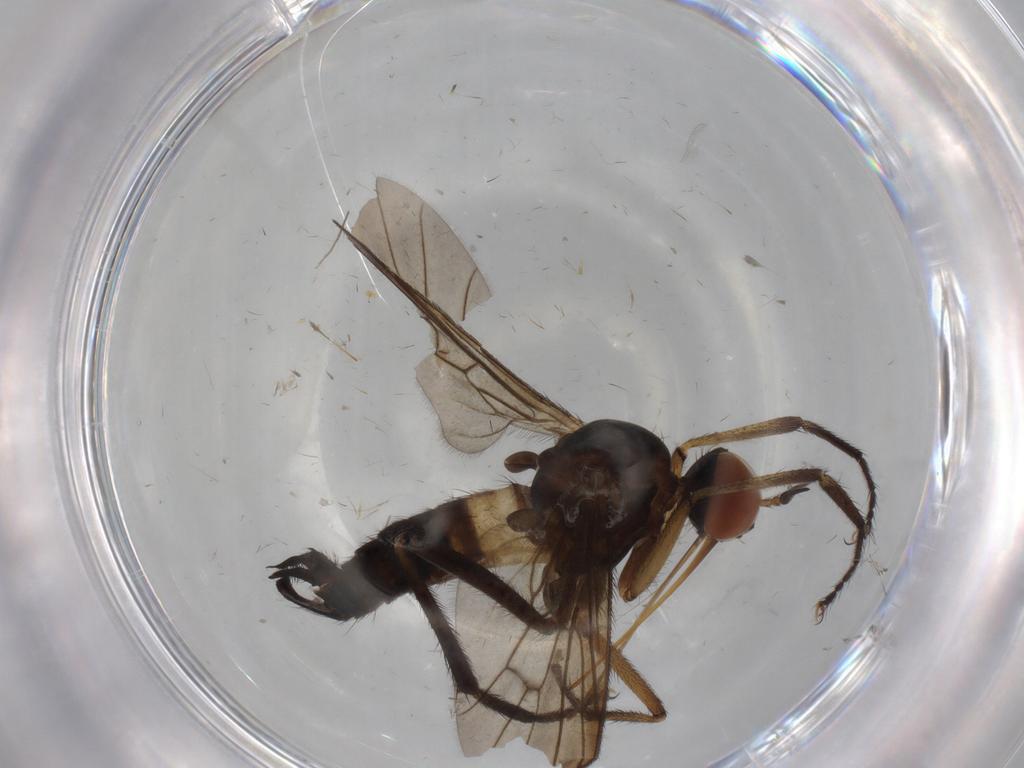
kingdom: Animalia
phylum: Arthropoda
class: Insecta
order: Diptera
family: Empididae
